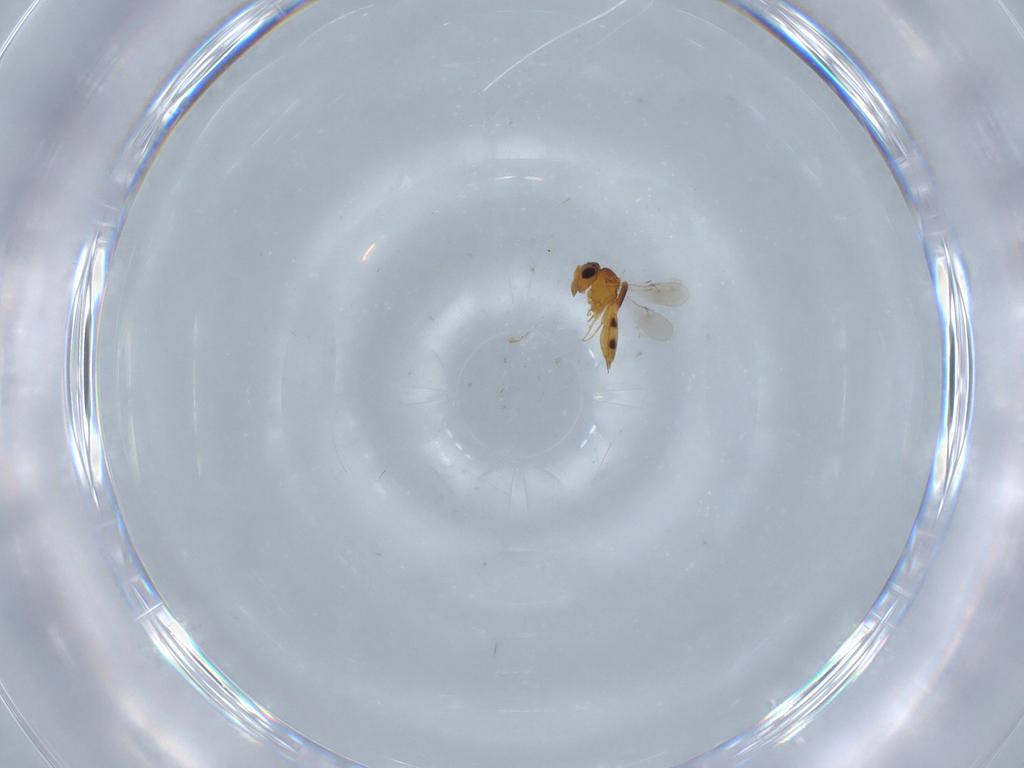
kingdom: Animalia
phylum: Arthropoda
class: Insecta
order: Hymenoptera
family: Scelionidae
